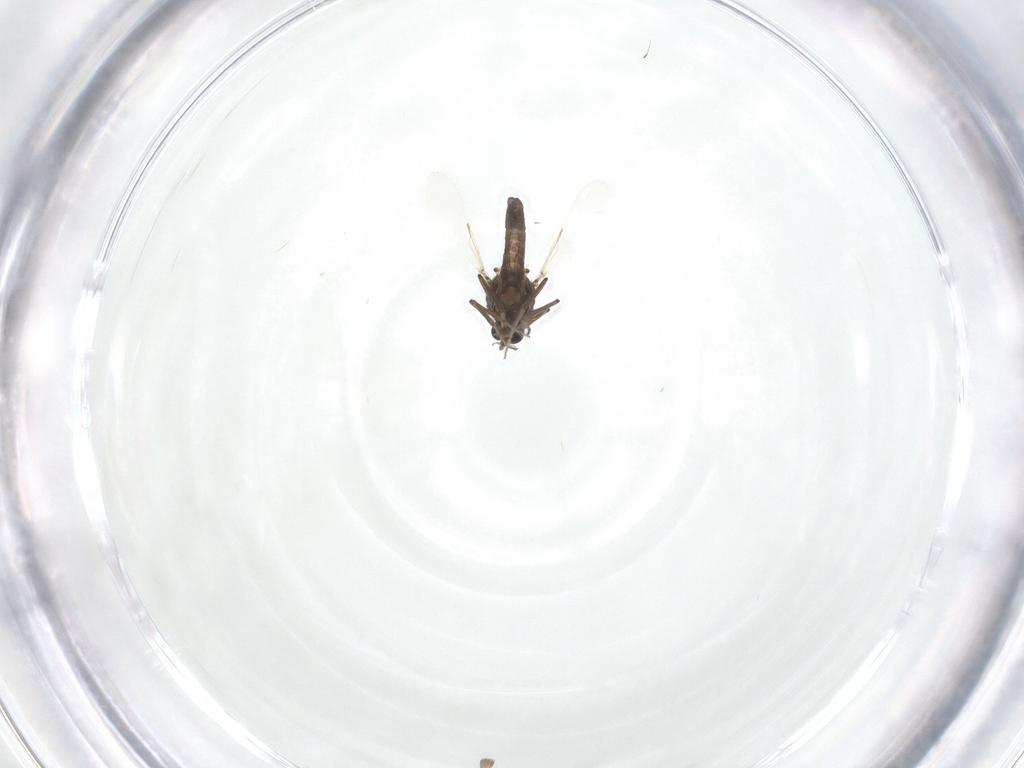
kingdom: Animalia
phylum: Arthropoda
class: Insecta
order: Diptera
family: Ceratopogonidae
